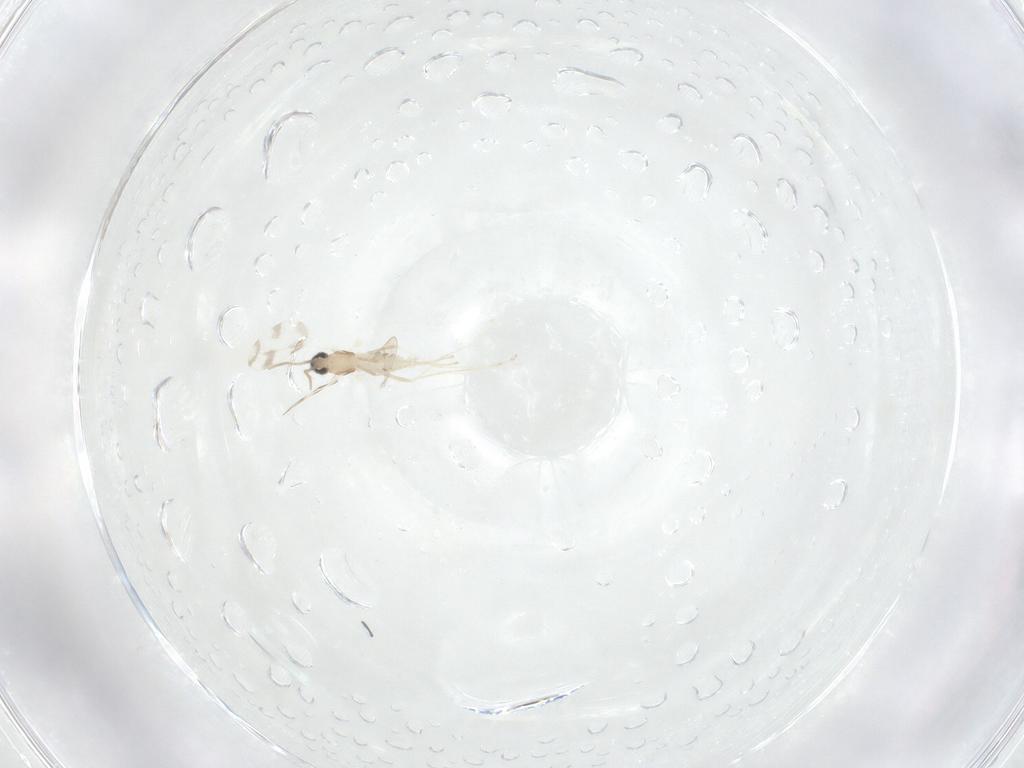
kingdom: Animalia
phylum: Arthropoda
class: Insecta
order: Diptera
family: Cecidomyiidae
